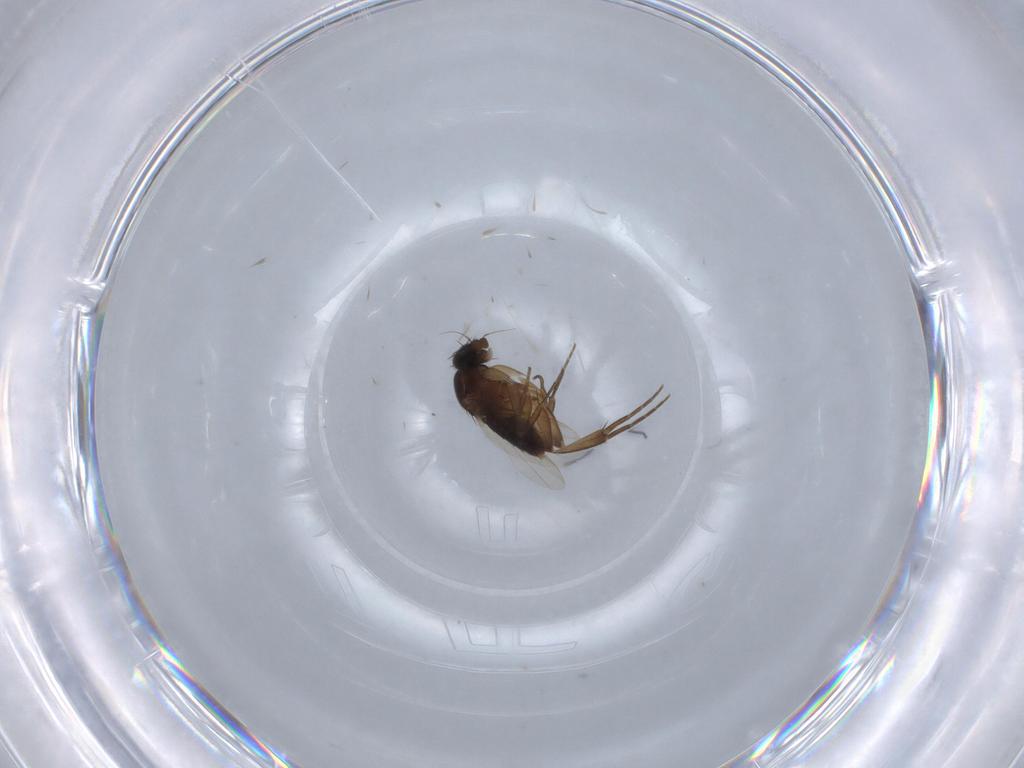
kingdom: Animalia
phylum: Arthropoda
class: Insecta
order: Diptera
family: Phoridae
